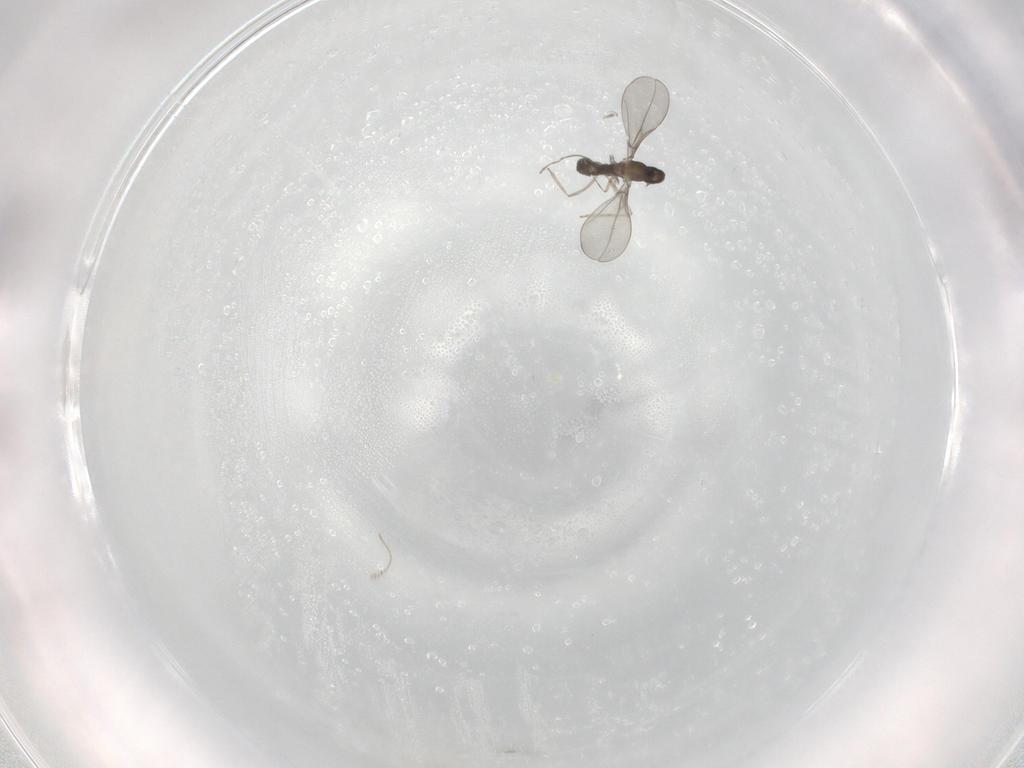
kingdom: Animalia
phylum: Arthropoda
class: Insecta
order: Diptera
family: Cecidomyiidae
